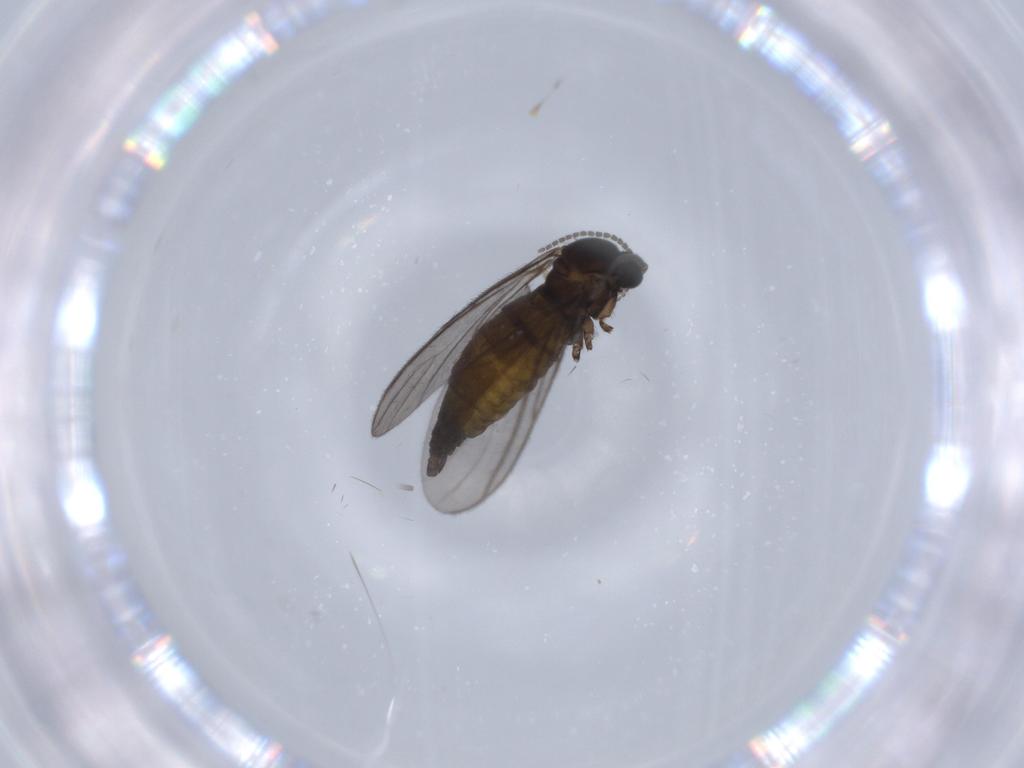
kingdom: Animalia
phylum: Arthropoda
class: Insecta
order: Diptera
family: Sciaridae
